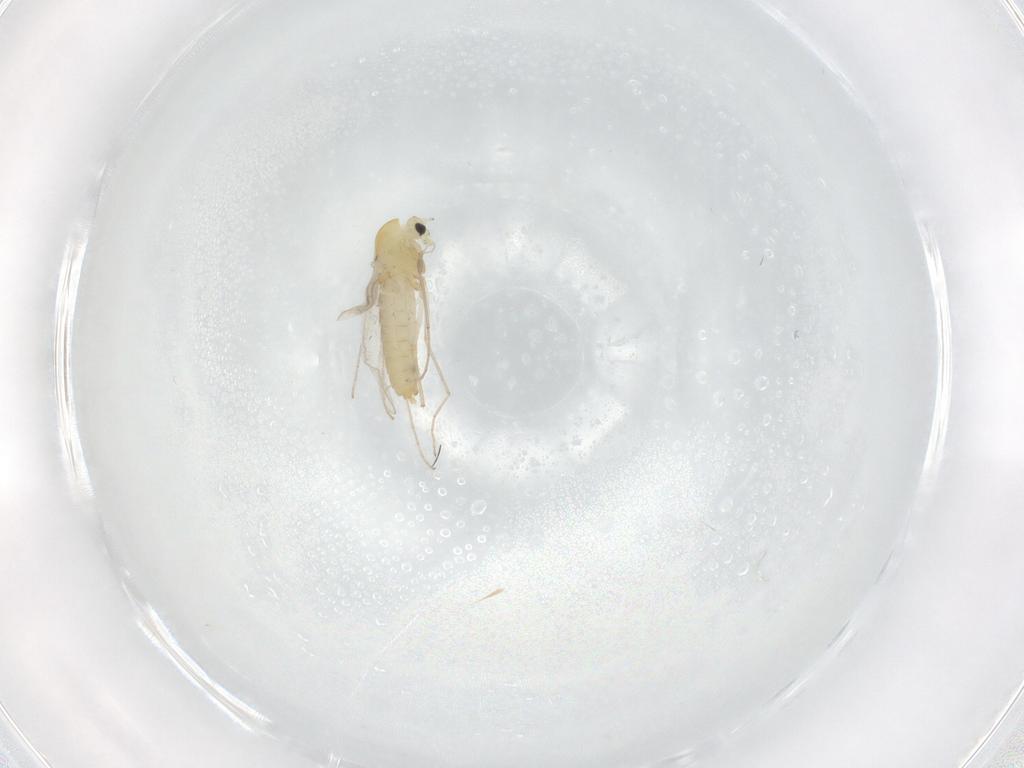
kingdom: Animalia
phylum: Arthropoda
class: Insecta
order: Diptera
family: Chironomidae
